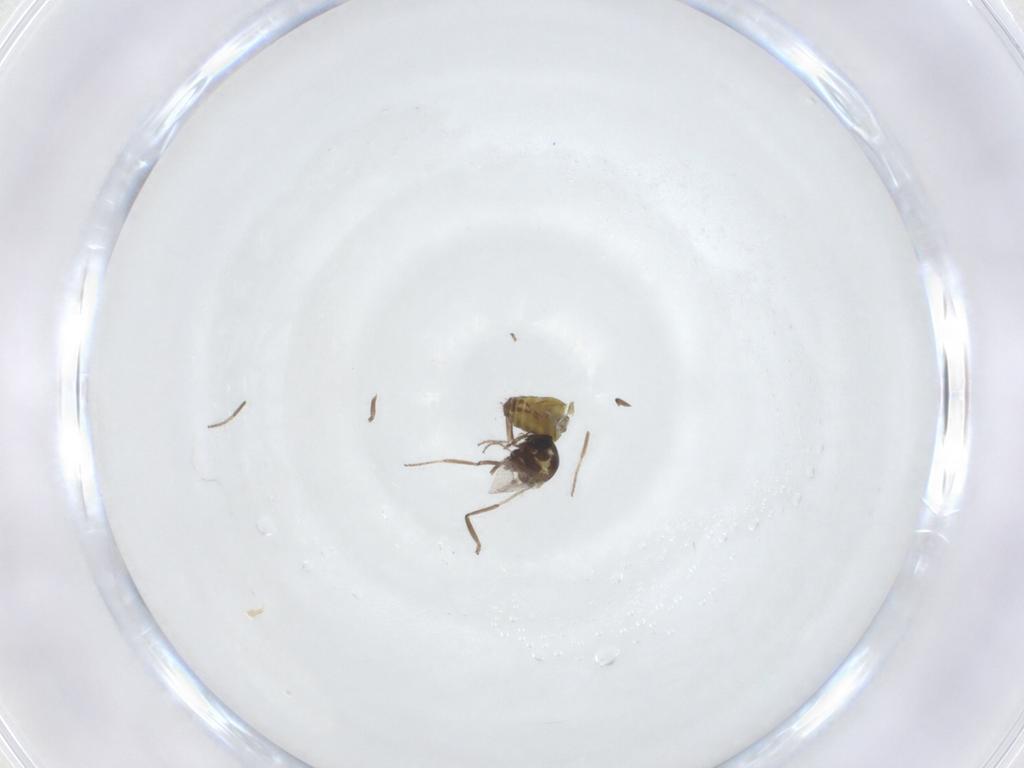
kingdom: Animalia
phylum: Arthropoda
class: Insecta
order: Diptera
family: Ceratopogonidae
